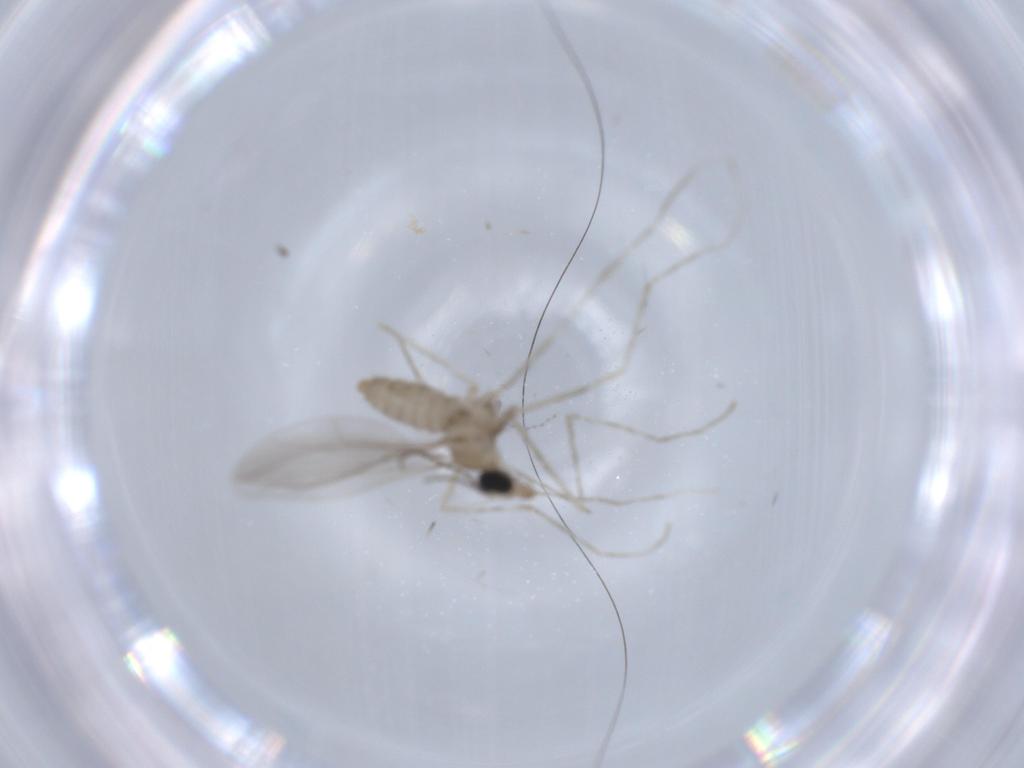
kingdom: Animalia
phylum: Arthropoda
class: Insecta
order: Diptera
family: Cecidomyiidae
